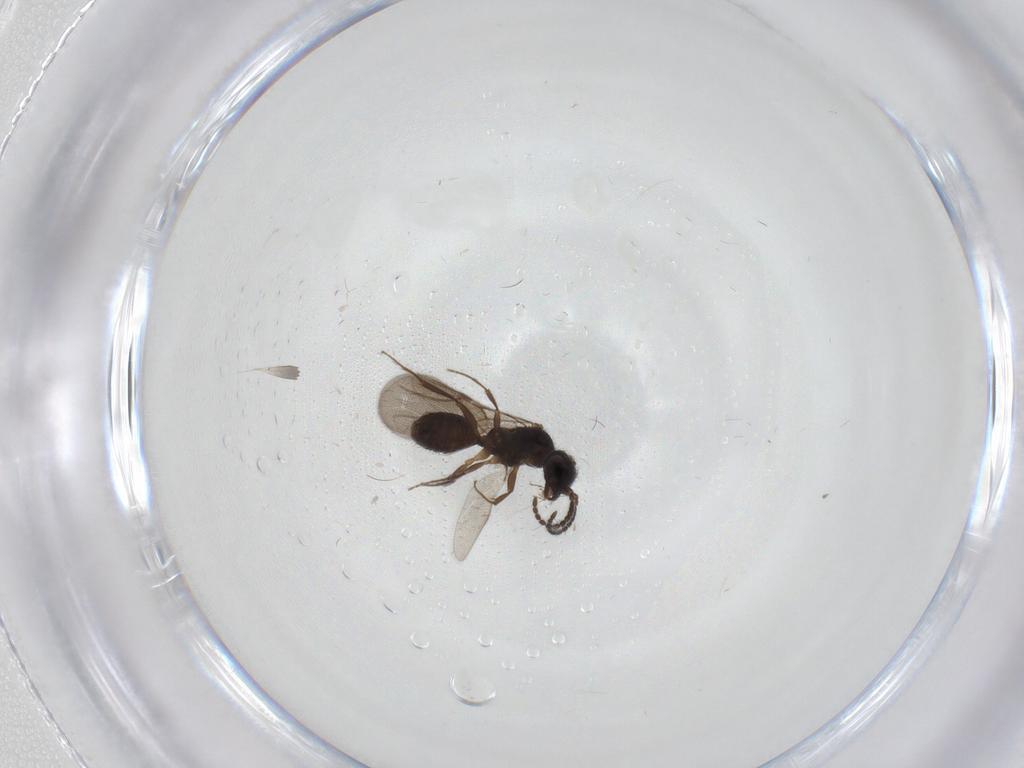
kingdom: Animalia
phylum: Arthropoda
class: Insecta
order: Hymenoptera
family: Bethylidae
